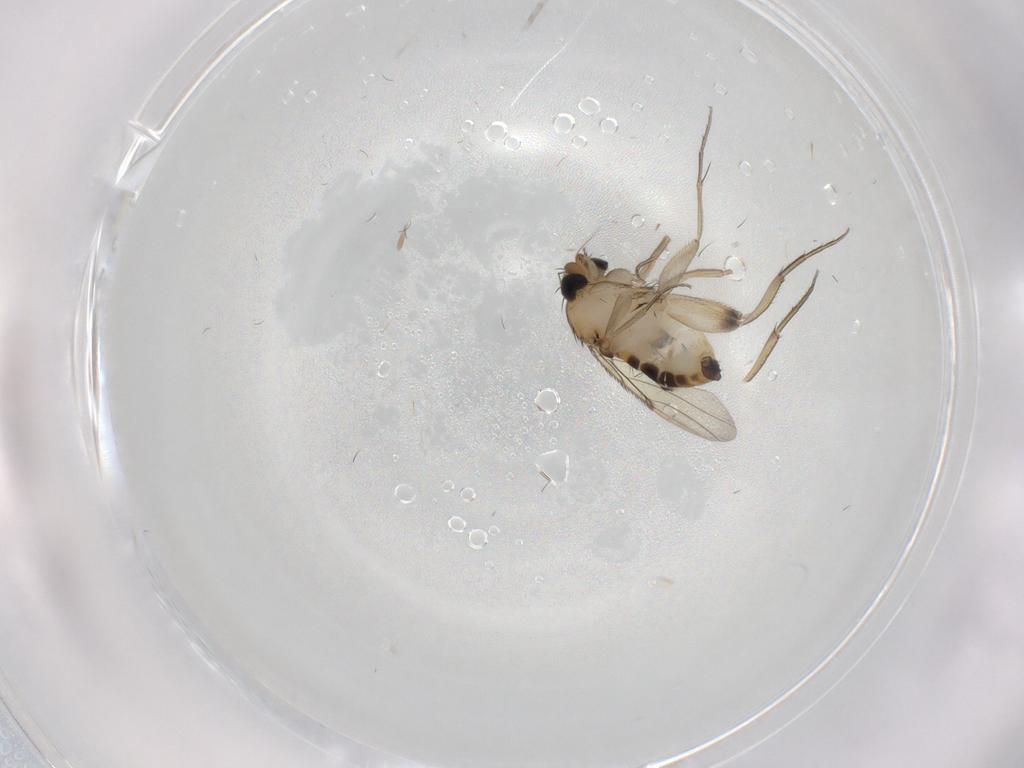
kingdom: Animalia
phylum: Arthropoda
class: Insecta
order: Diptera
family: Phoridae
